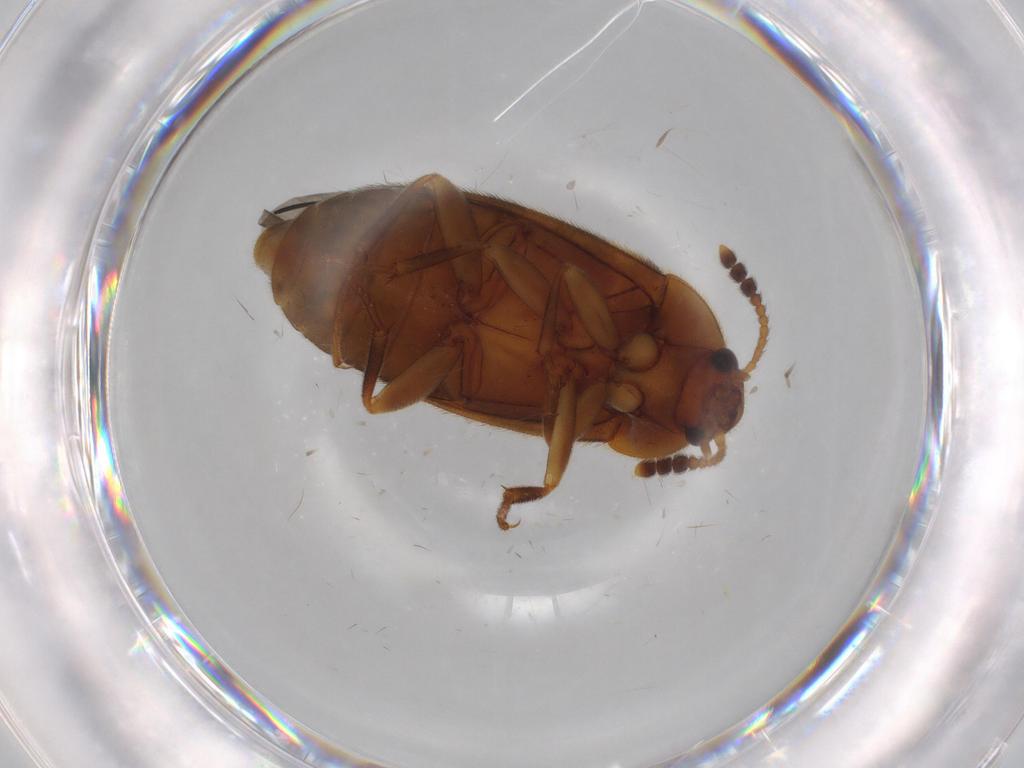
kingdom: Animalia
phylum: Arthropoda
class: Insecta
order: Coleoptera
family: Mycetophagidae
